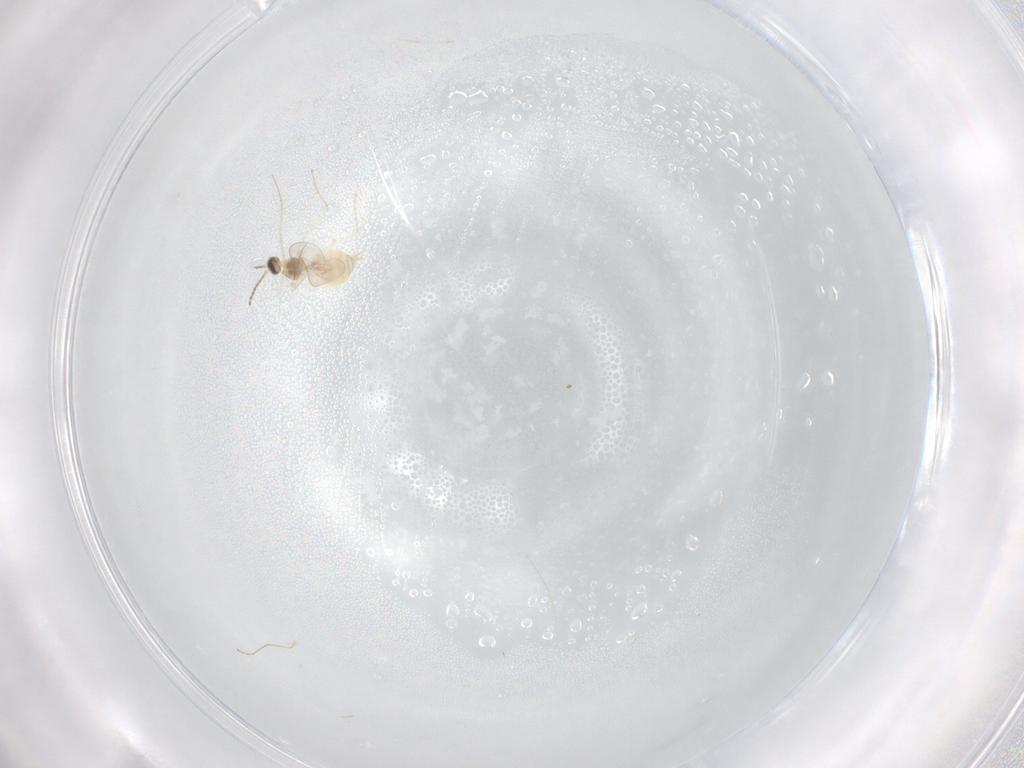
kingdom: Animalia
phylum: Arthropoda
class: Insecta
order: Diptera
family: Cecidomyiidae
